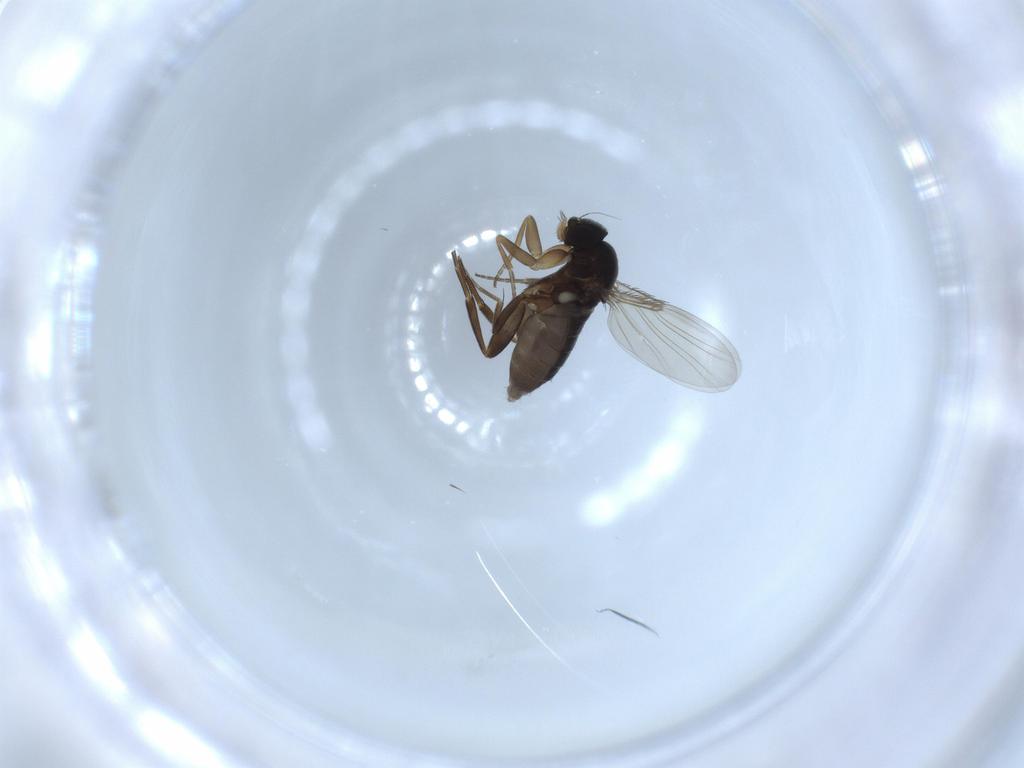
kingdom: Animalia
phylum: Arthropoda
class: Insecta
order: Diptera
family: Phoridae
